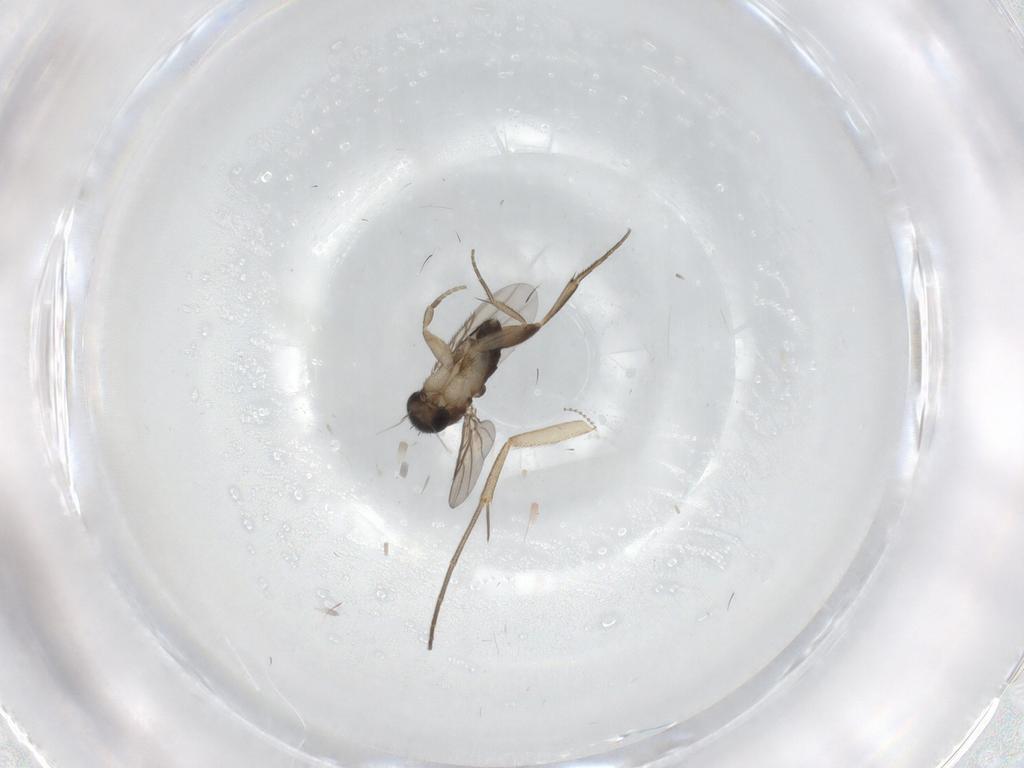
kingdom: Animalia
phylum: Arthropoda
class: Insecta
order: Diptera
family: Phoridae
